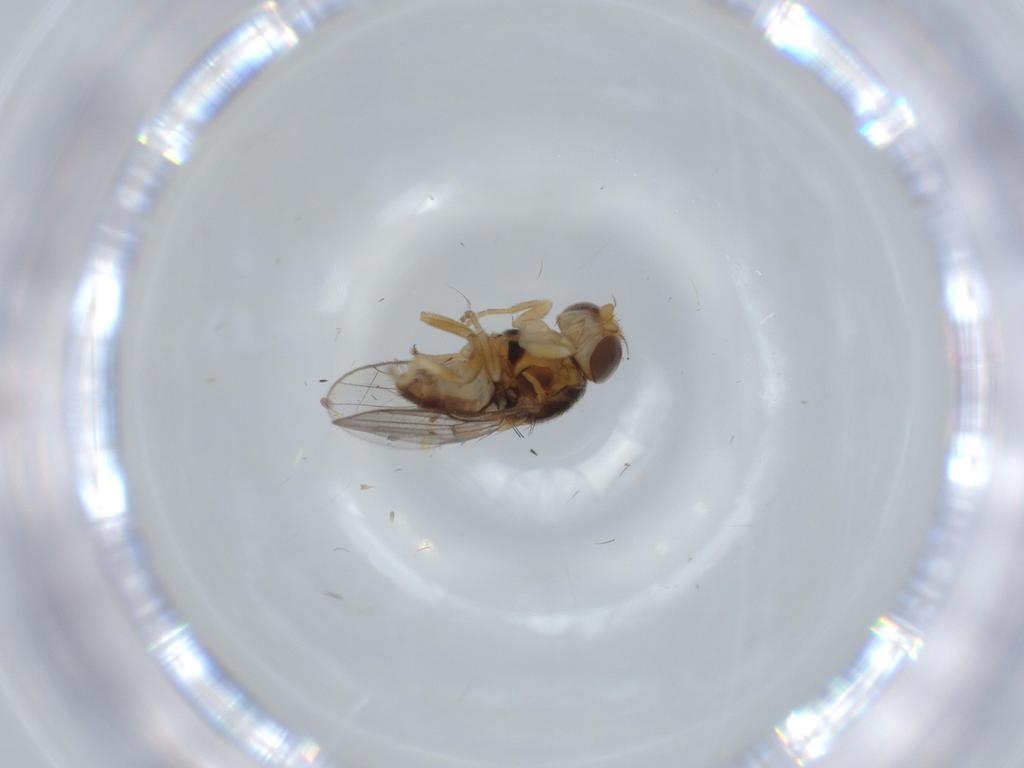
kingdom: Animalia
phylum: Arthropoda
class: Insecta
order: Diptera
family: Chloropidae
